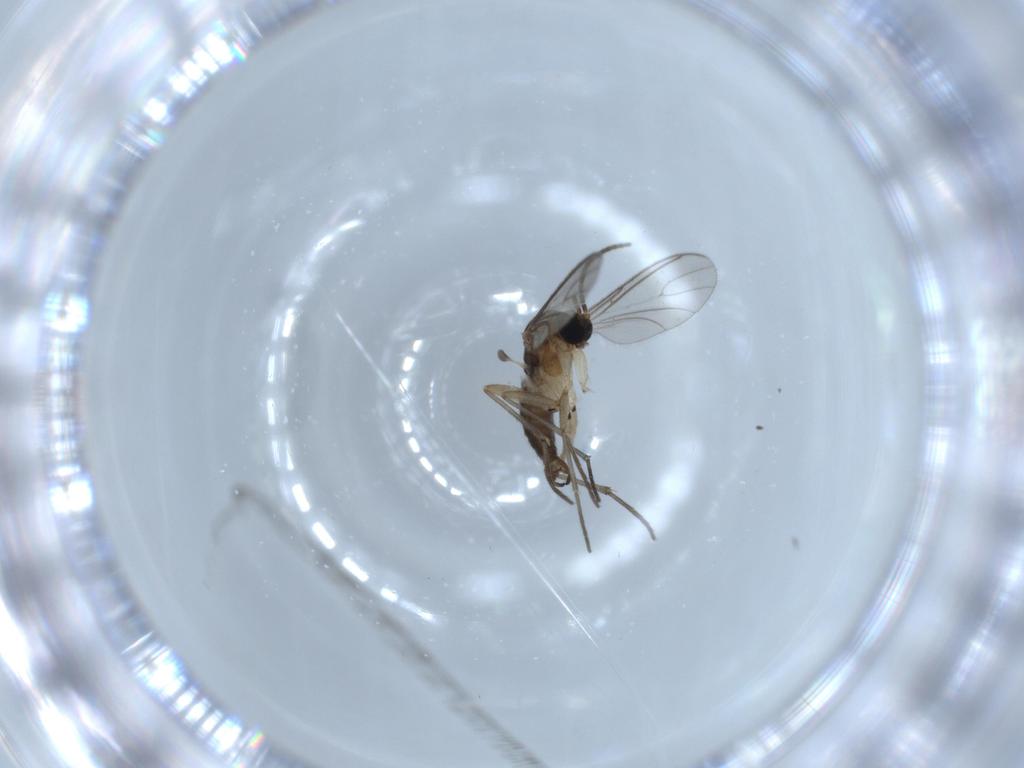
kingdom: Animalia
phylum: Arthropoda
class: Insecta
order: Diptera
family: Sciaridae
